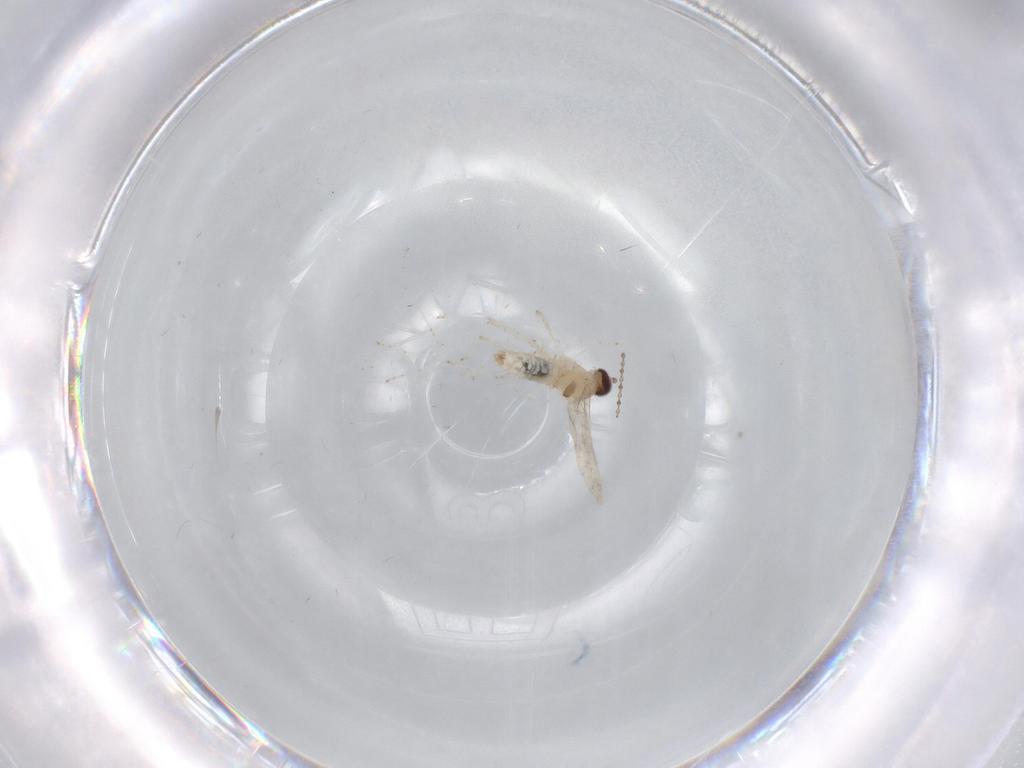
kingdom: Animalia
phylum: Arthropoda
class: Insecta
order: Diptera
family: Cecidomyiidae
